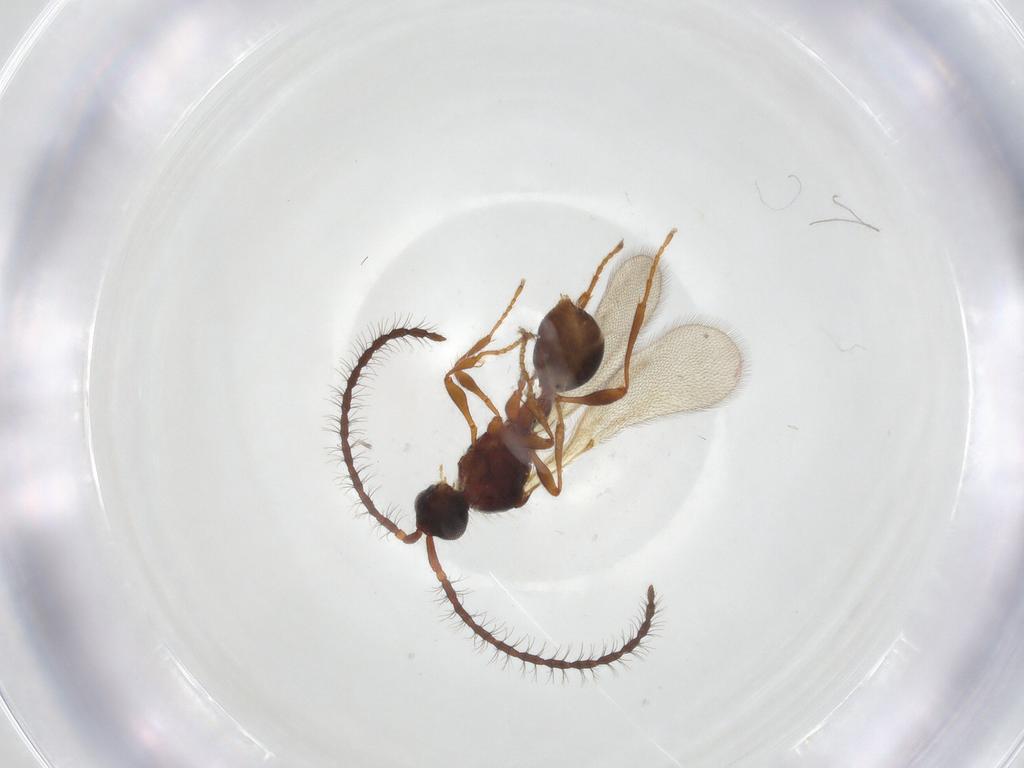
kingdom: Animalia
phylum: Arthropoda
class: Insecta
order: Hymenoptera
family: Diapriidae
